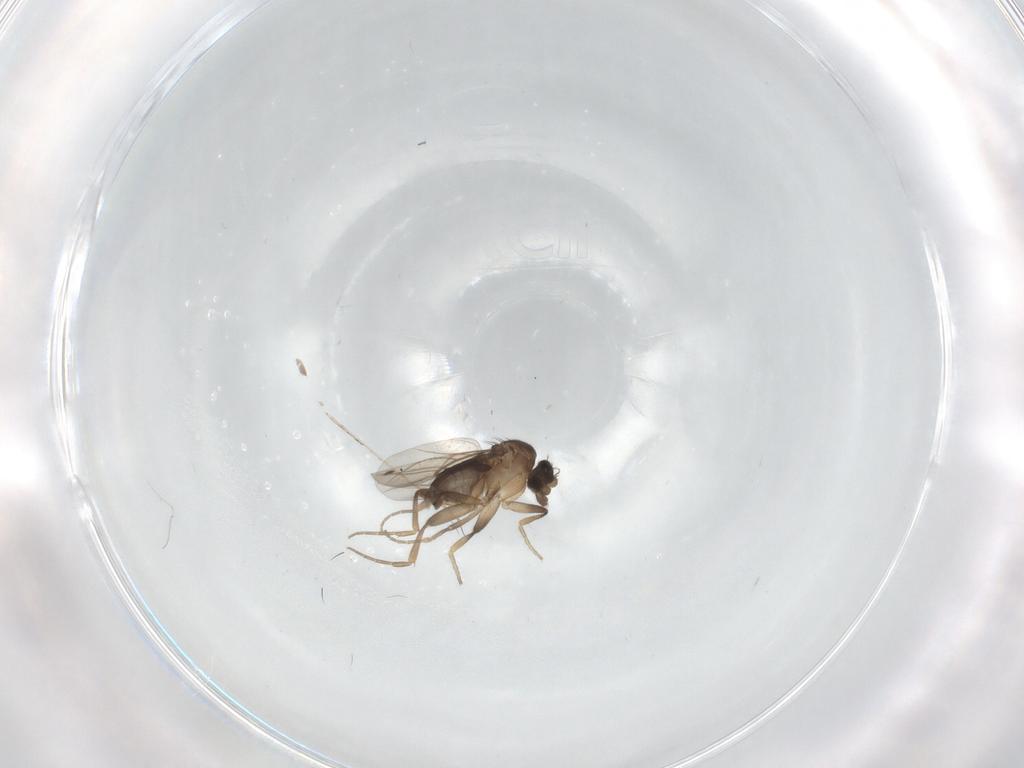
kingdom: Animalia
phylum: Arthropoda
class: Insecta
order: Diptera
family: Phoridae
